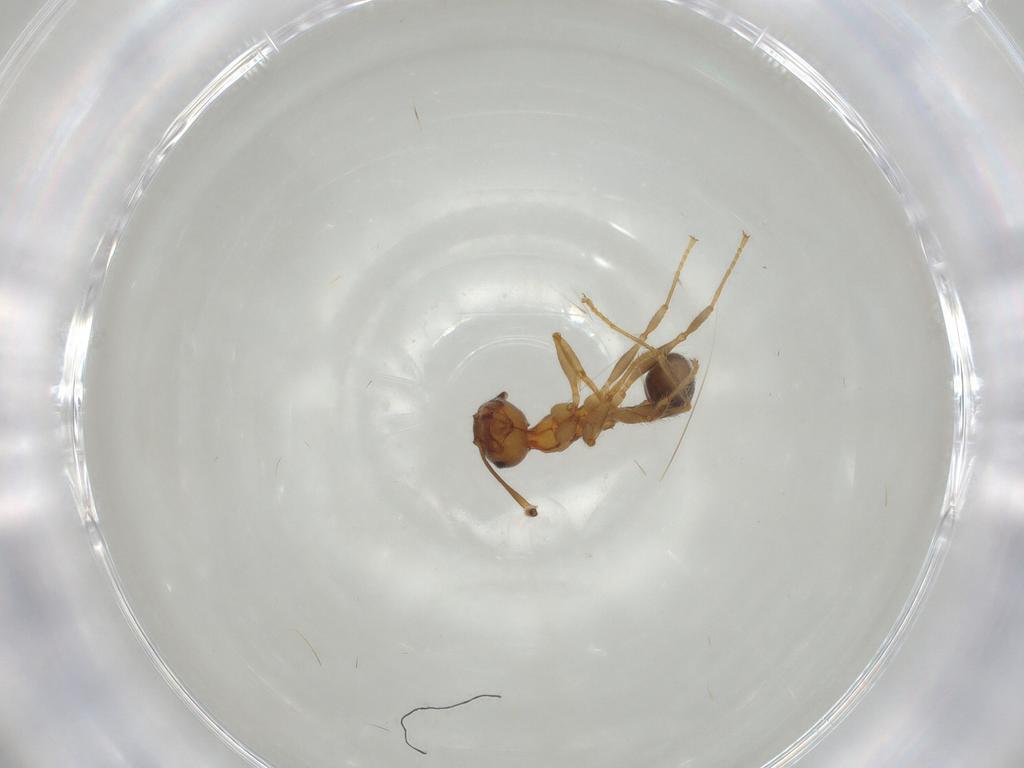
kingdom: Animalia
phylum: Arthropoda
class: Insecta
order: Hymenoptera
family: Formicidae
